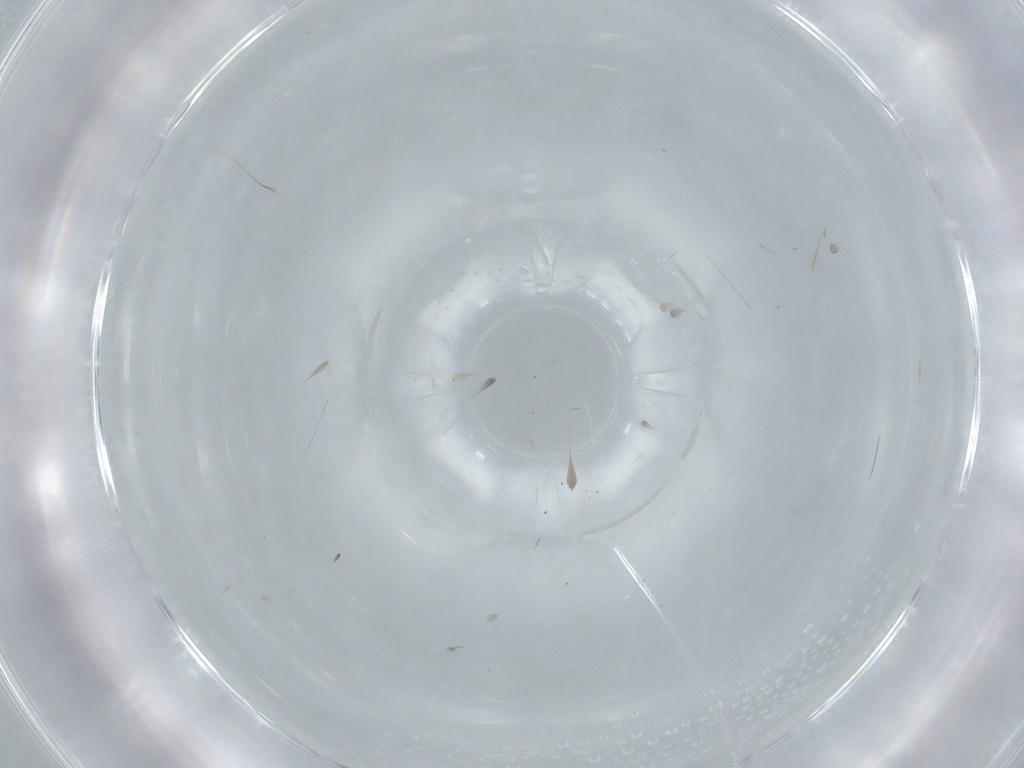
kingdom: Animalia
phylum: Arthropoda
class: Insecta
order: Diptera
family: Cecidomyiidae
